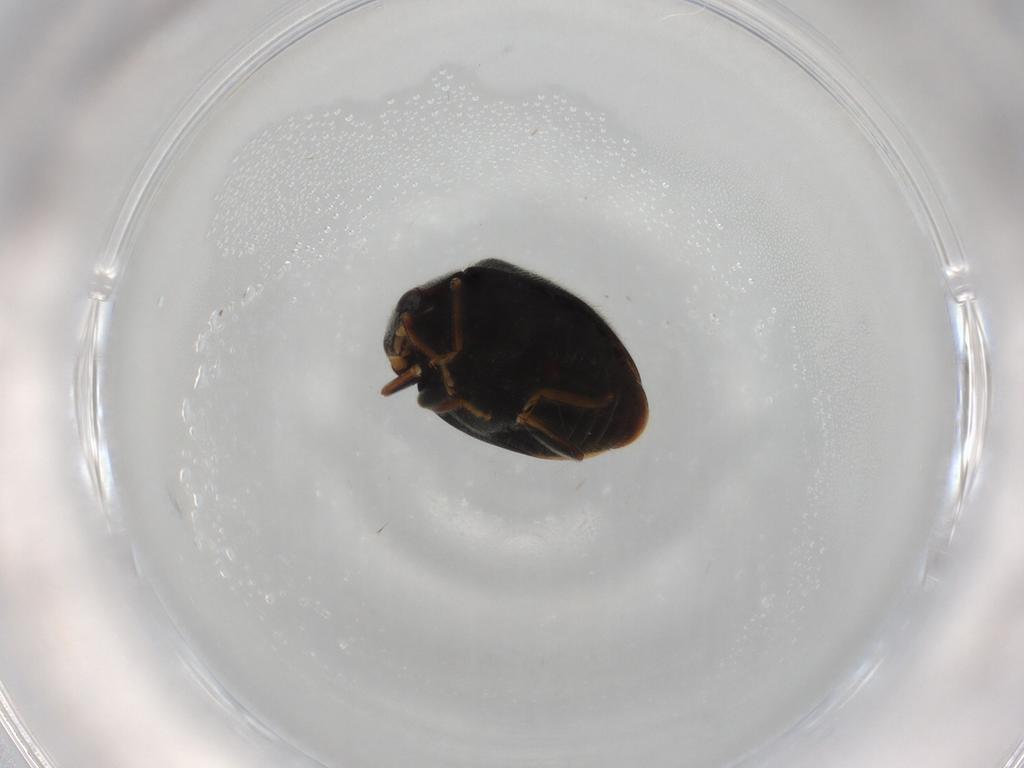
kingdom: Animalia
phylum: Arthropoda
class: Insecta
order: Coleoptera
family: Coccinellidae
